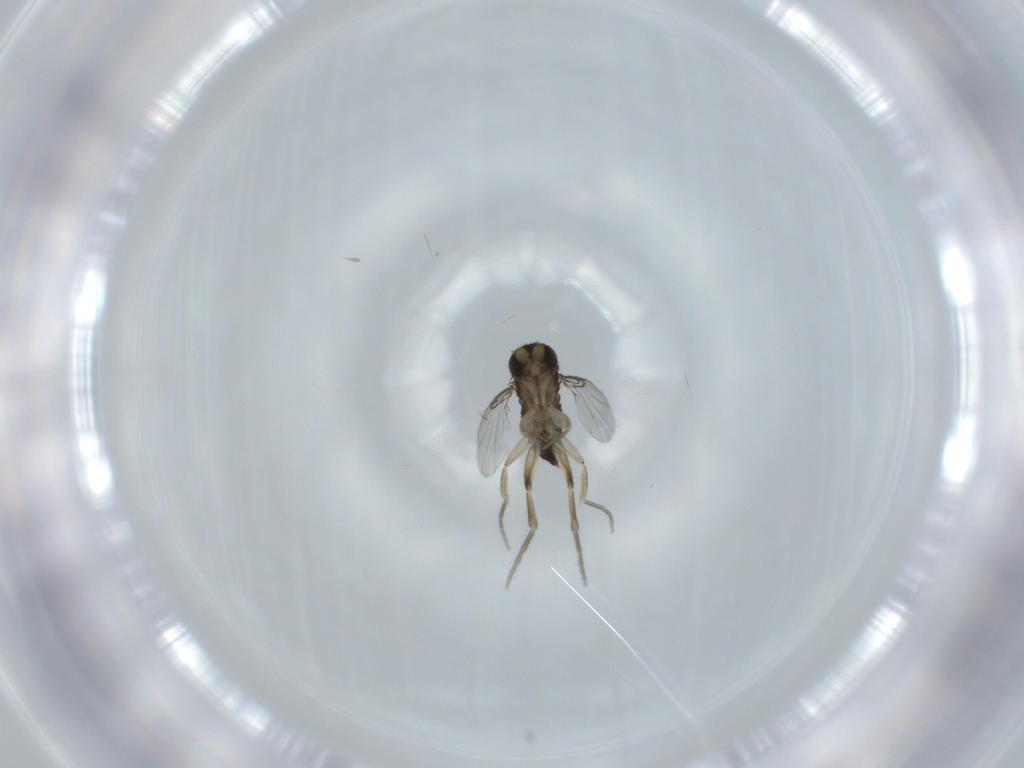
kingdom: Animalia
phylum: Arthropoda
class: Insecta
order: Diptera
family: Phoridae
